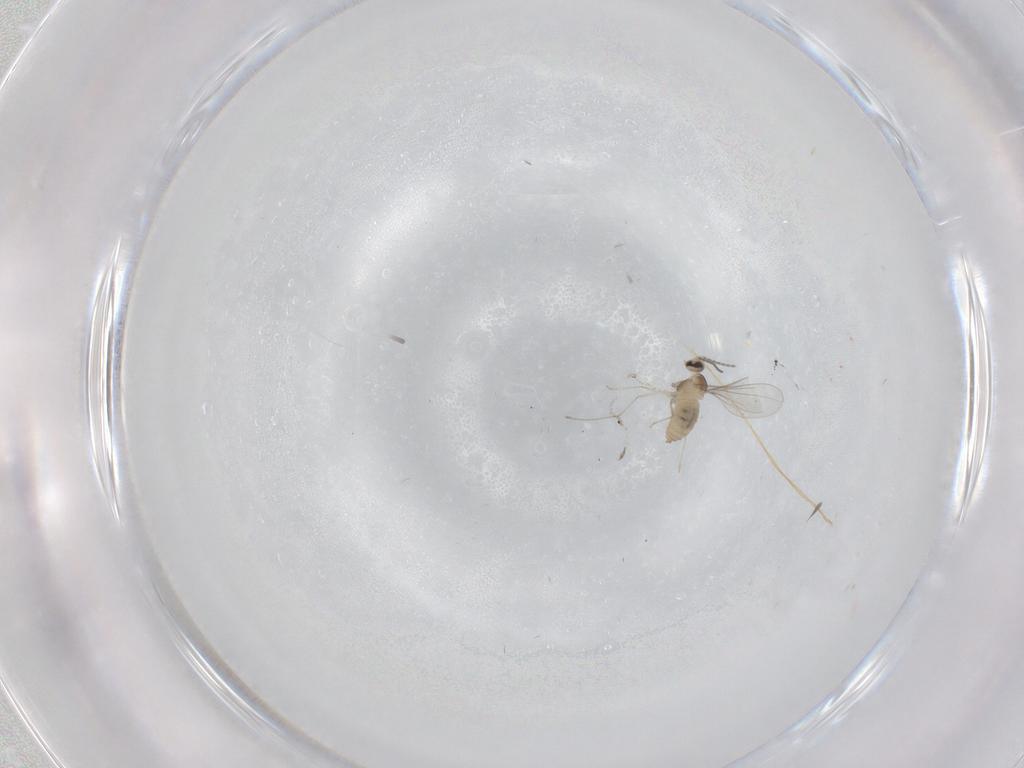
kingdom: Animalia
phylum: Arthropoda
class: Insecta
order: Diptera
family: Cecidomyiidae
